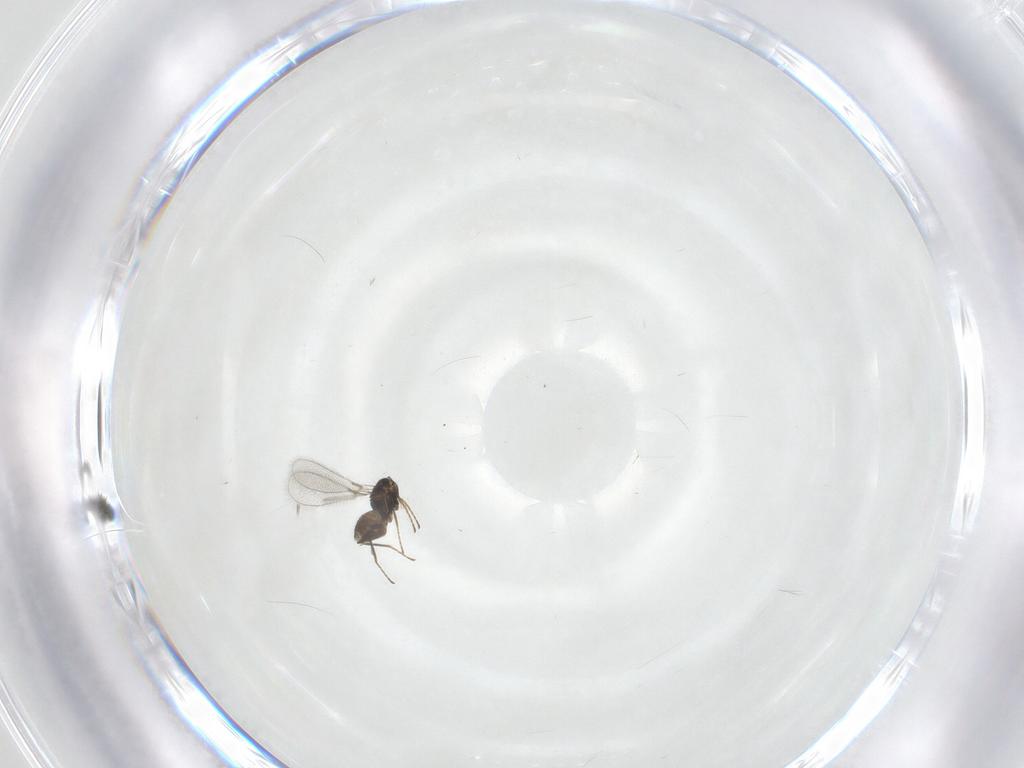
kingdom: Animalia
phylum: Arthropoda
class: Insecta
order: Hymenoptera
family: Mymaridae
